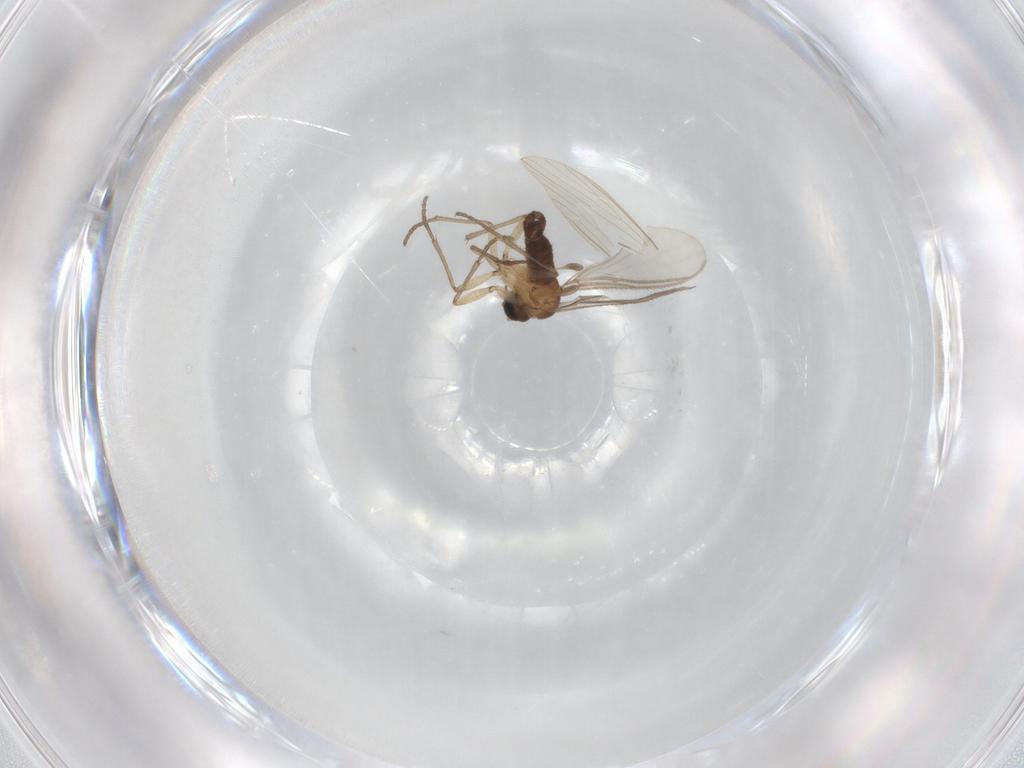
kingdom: Animalia
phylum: Arthropoda
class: Insecta
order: Diptera
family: Sciaridae
